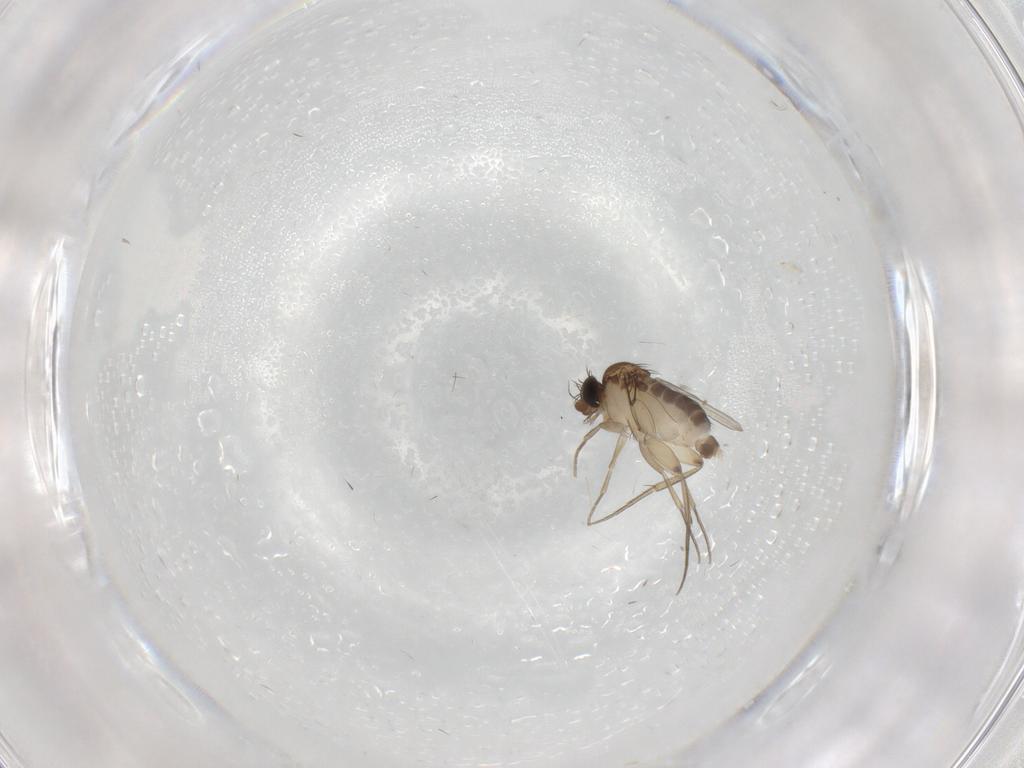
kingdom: Animalia
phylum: Arthropoda
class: Insecta
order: Diptera
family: Phoridae
